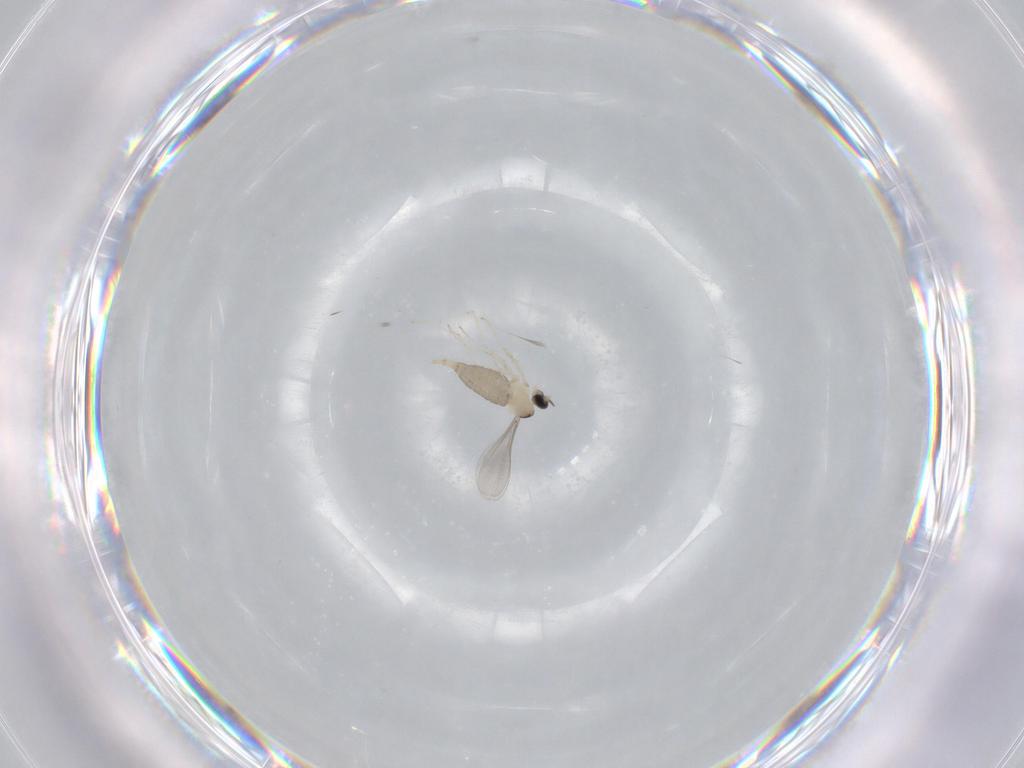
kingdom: Animalia
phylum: Arthropoda
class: Insecta
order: Diptera
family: Cecidomyiidae
